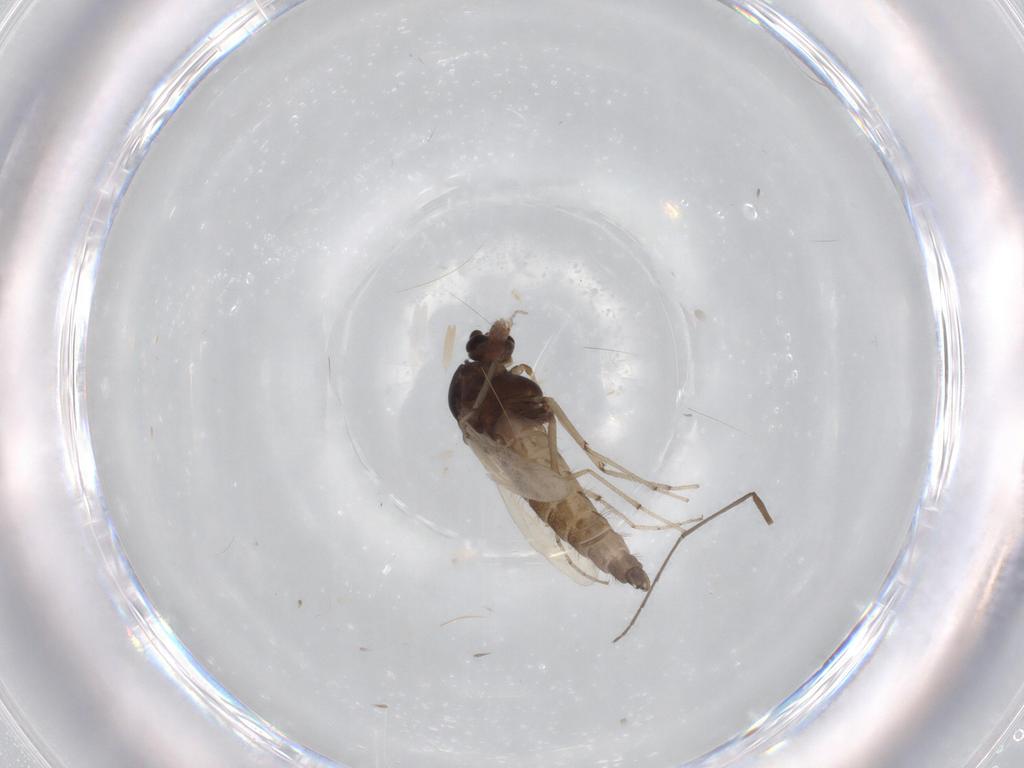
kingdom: Animalia
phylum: Arthropoda
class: Insecta
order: Diptera
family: Chironomidae
